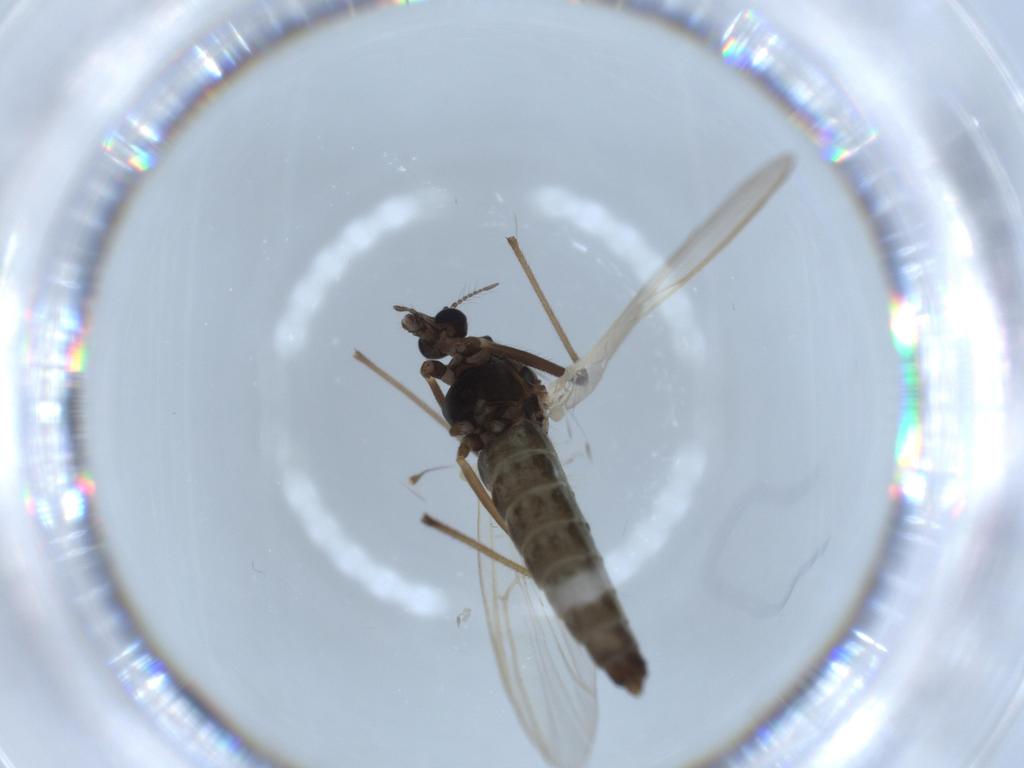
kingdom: Animalia
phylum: Arthropoda
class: Insecta
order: Diptera
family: Chironomidae
